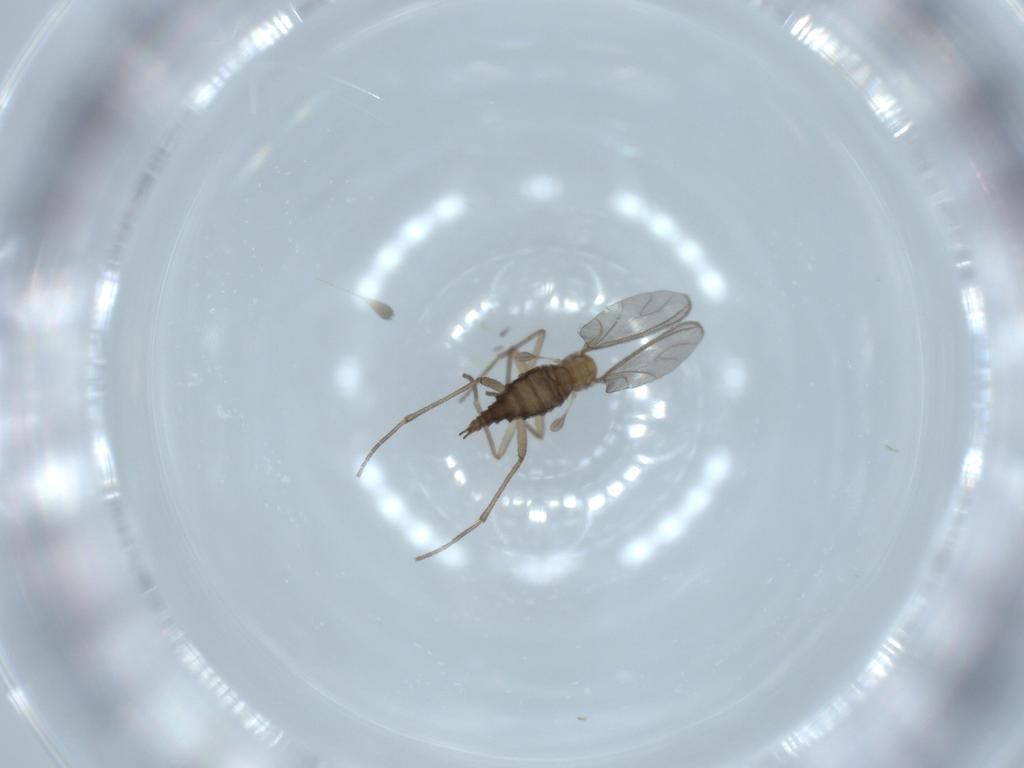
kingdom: Animalia
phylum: Arthropoda
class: Insecta
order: Diptera
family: Sciaridae
